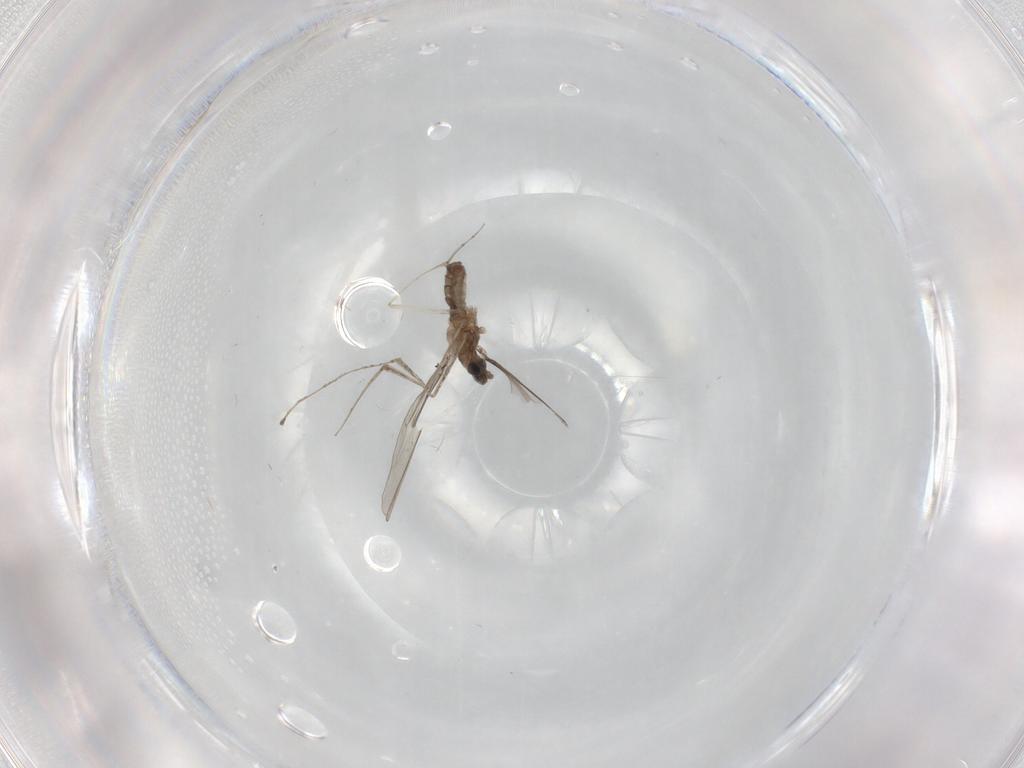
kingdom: Animalia
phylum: Arthropoda
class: Insecta
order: Diptera
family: Cecidomyiidae
